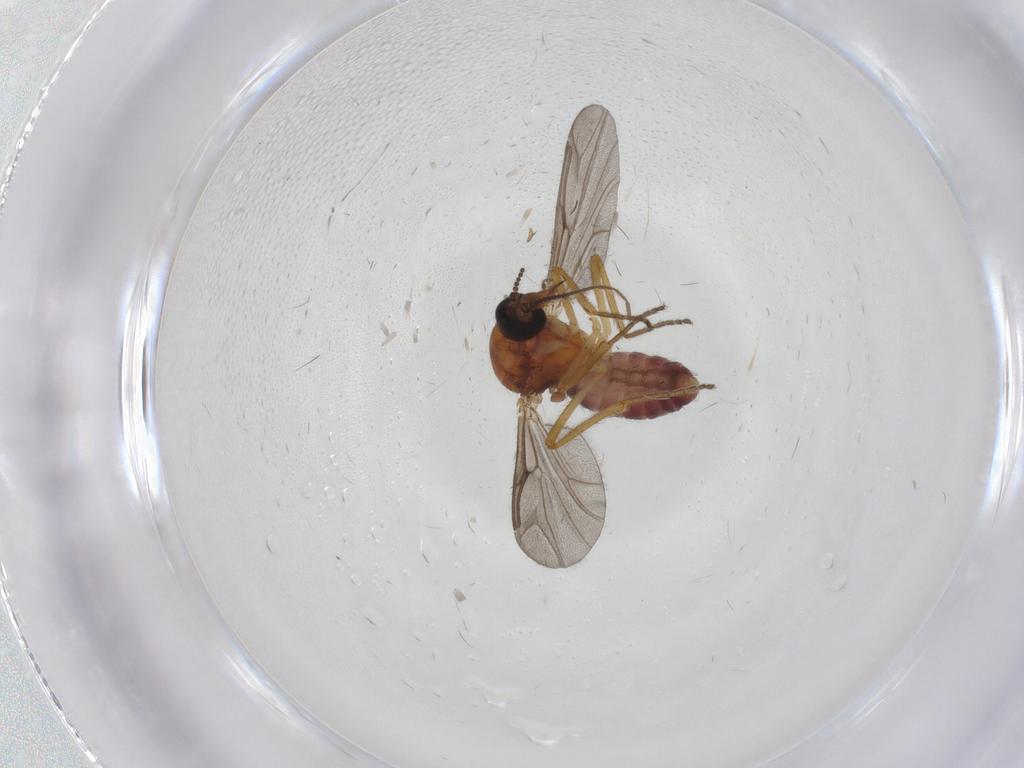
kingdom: Animalia
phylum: Arthropoda
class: Insecta
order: Diptera
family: Ceratopogonidae
